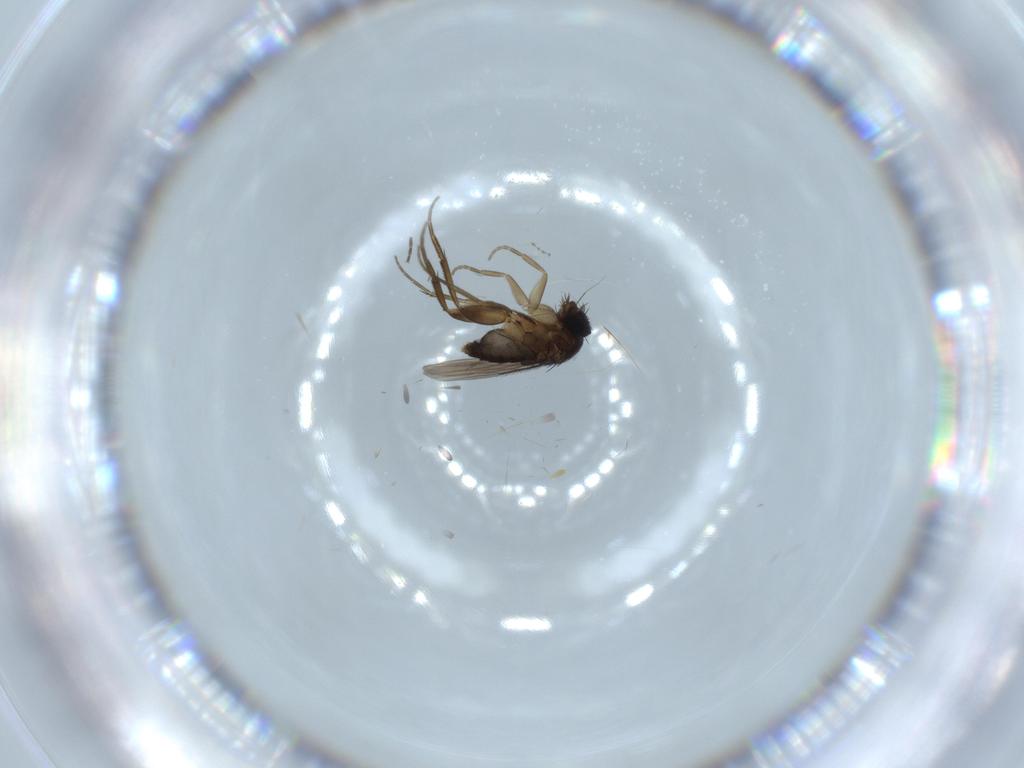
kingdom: Animalia
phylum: Arthropoda
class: Insecta
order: Diptera
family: Phoridae
